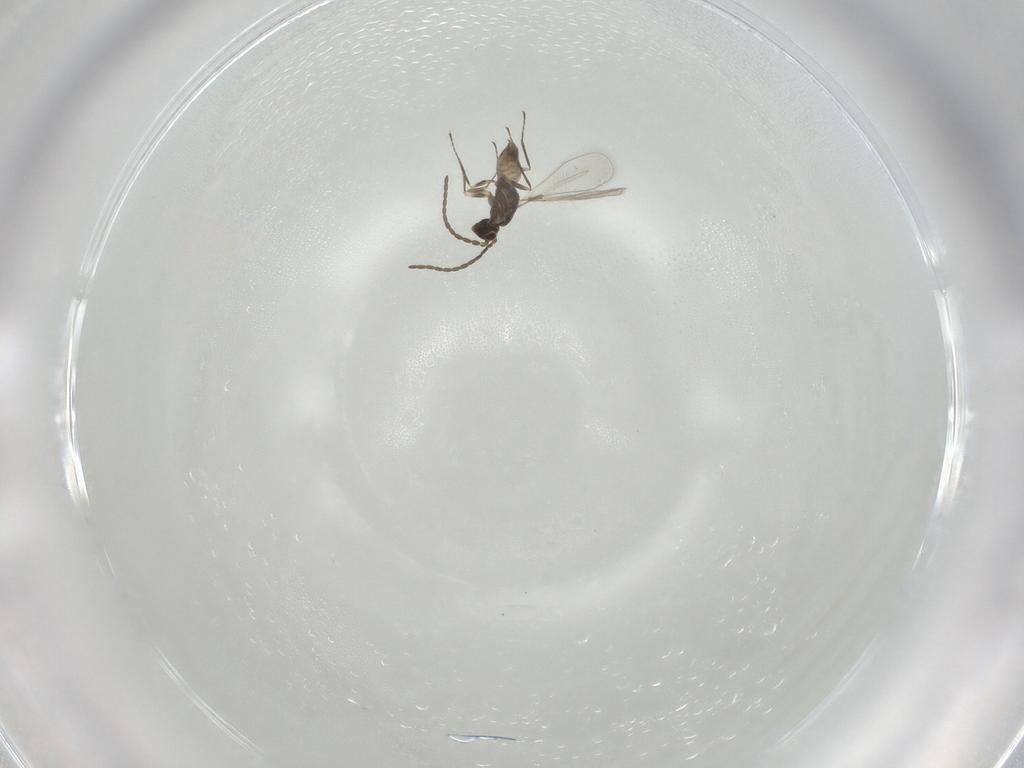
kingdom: Animalia
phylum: Arthropoda
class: Insecta
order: Hymenoptera
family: Mymaridae
